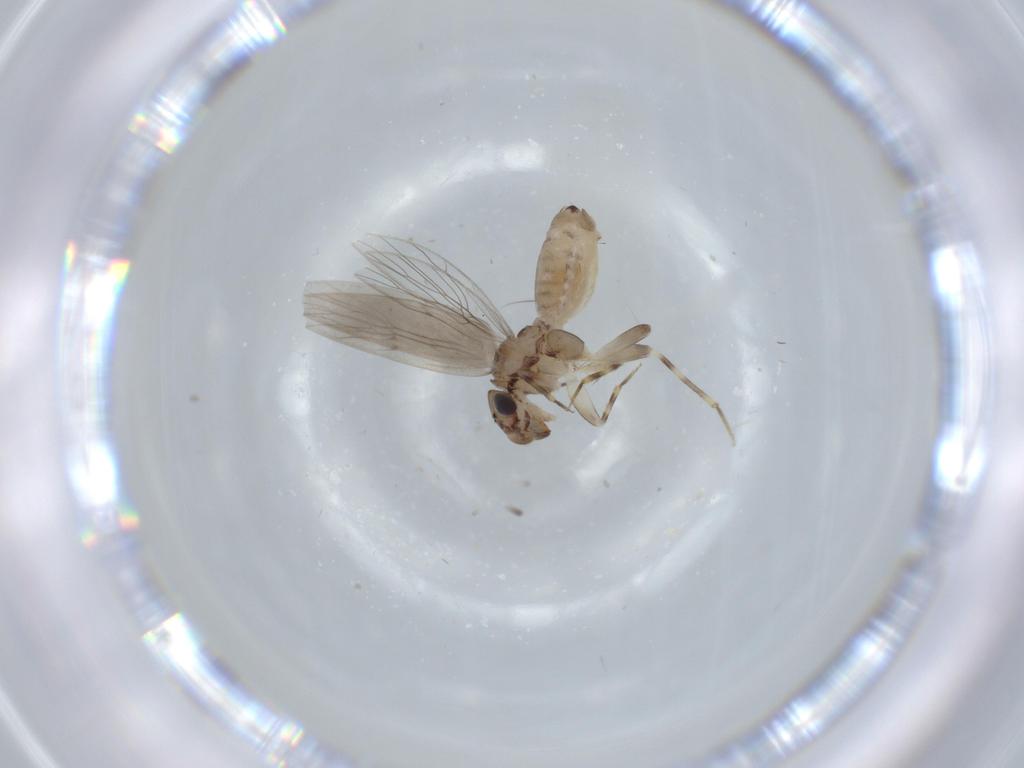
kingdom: Animalia
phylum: Arthropoda
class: Insecta
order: Psocodea
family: Lepidopsocidae
